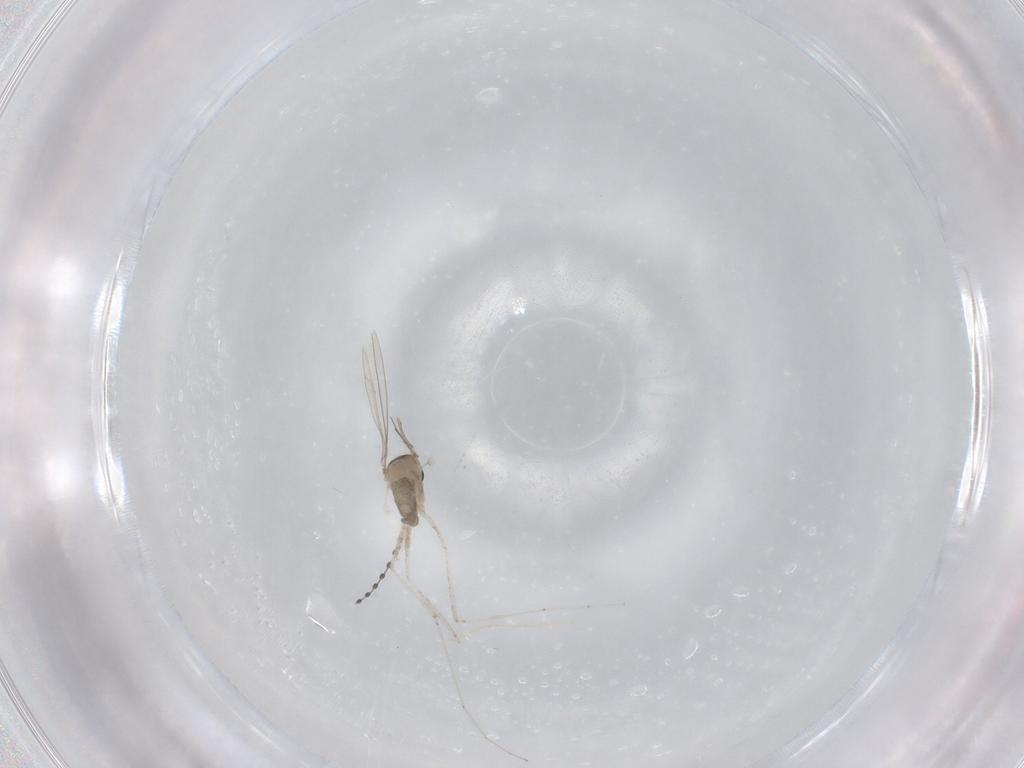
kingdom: Animalia
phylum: Arthropoda
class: Insecta
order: Diptera
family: Cecidomyiidae
